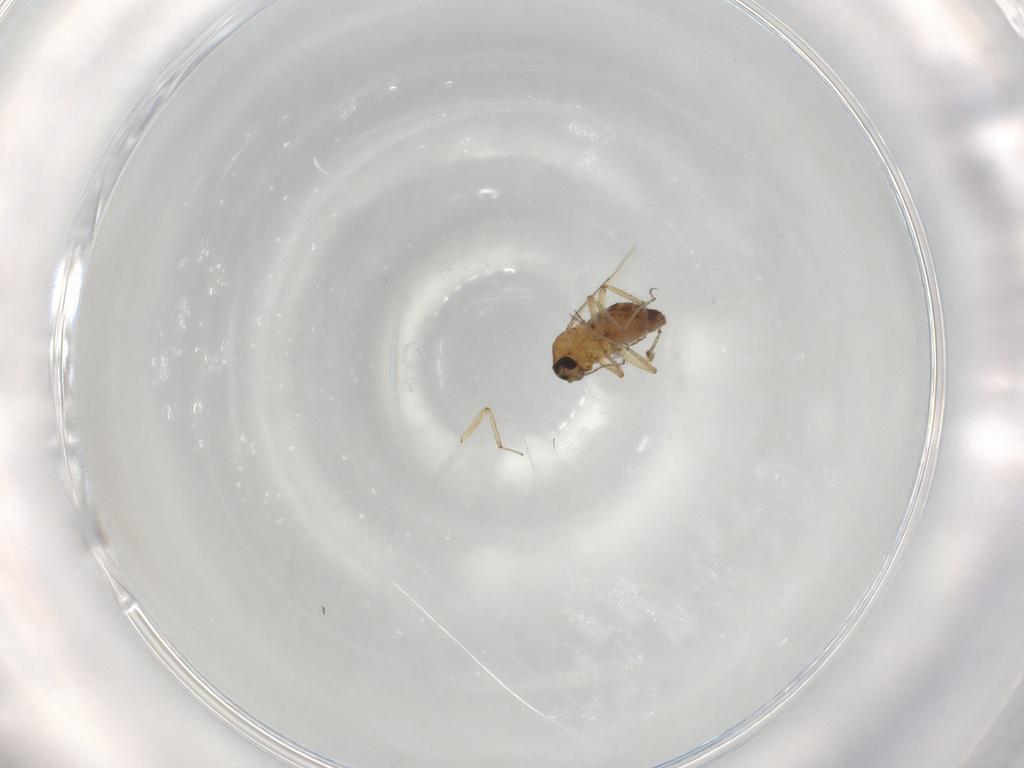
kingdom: Animalia
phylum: Arthropoda
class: Insecta
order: Diptera
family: Ceratopogonidae
